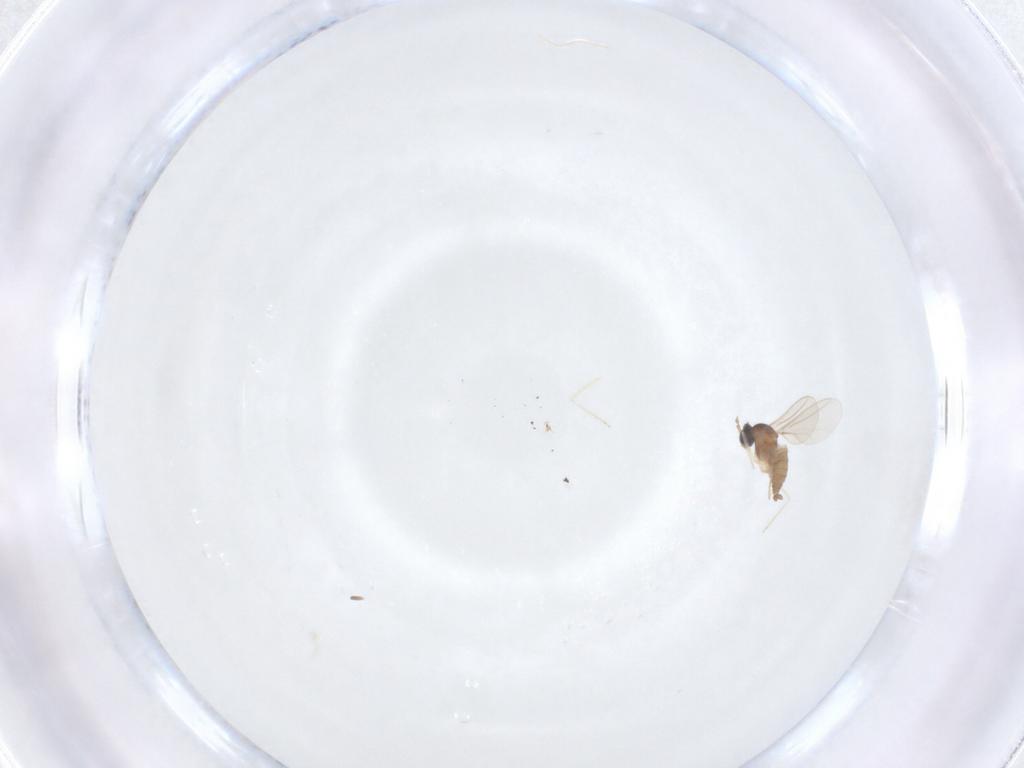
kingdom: Animalia
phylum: Arthropoda
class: Insecta
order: Diptera
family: Cecidomyiidae
